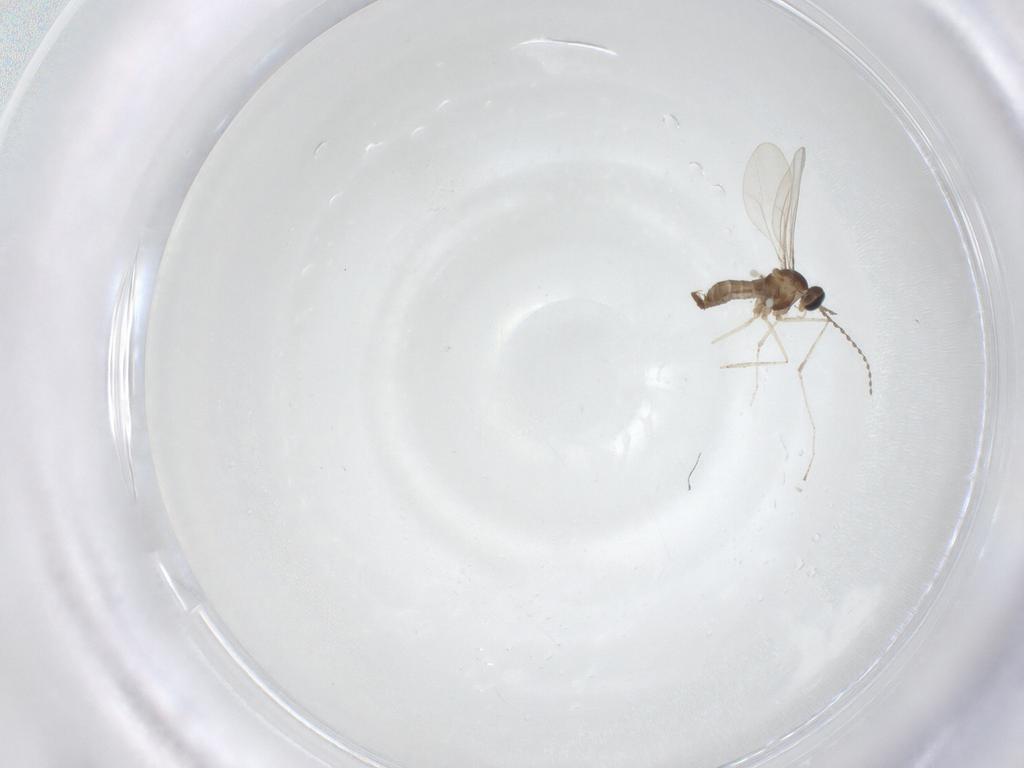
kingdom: Animalia
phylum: Arthropoda
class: Insecta
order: Diptera
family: Cecidomyiidae
